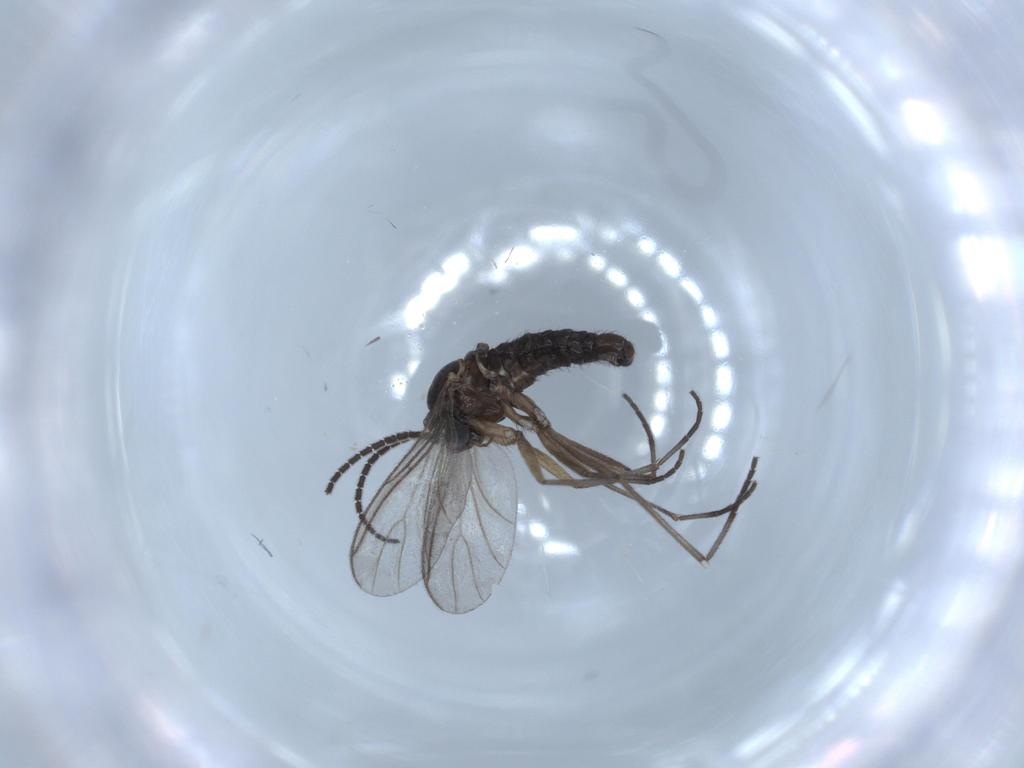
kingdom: Animalia
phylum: Arthropoda
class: Insecta
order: Diptera
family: Sciaridae
